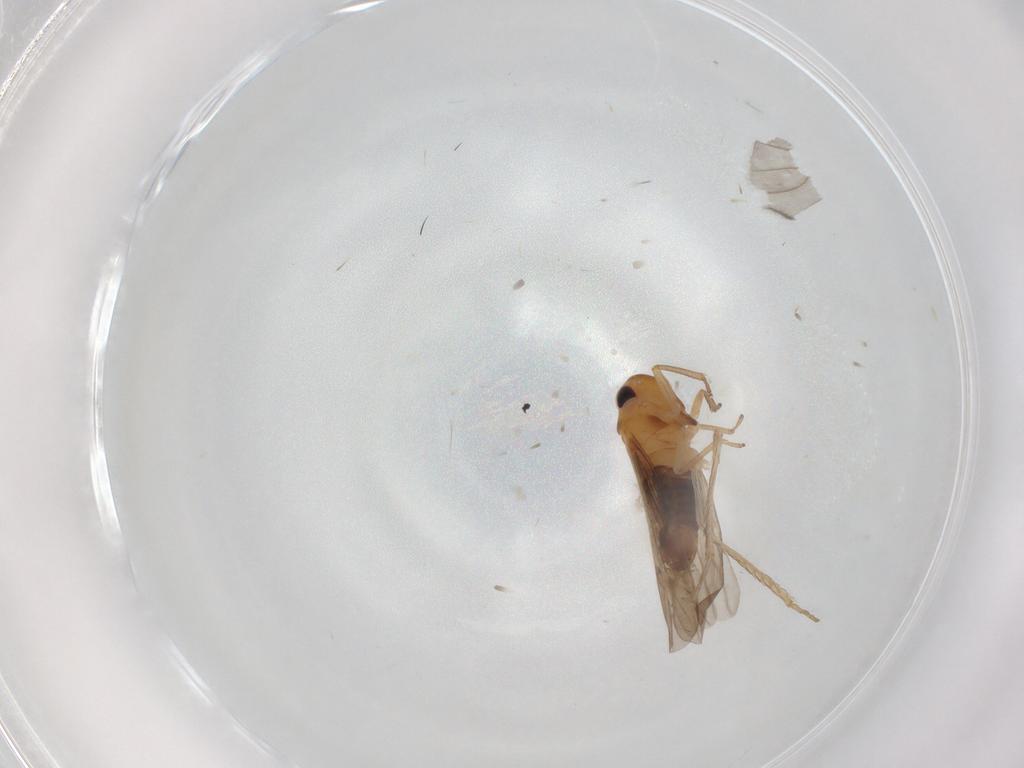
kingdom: Animalia
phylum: Arthropoda
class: Insecta
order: Hemiptera
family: Cicadellidae
